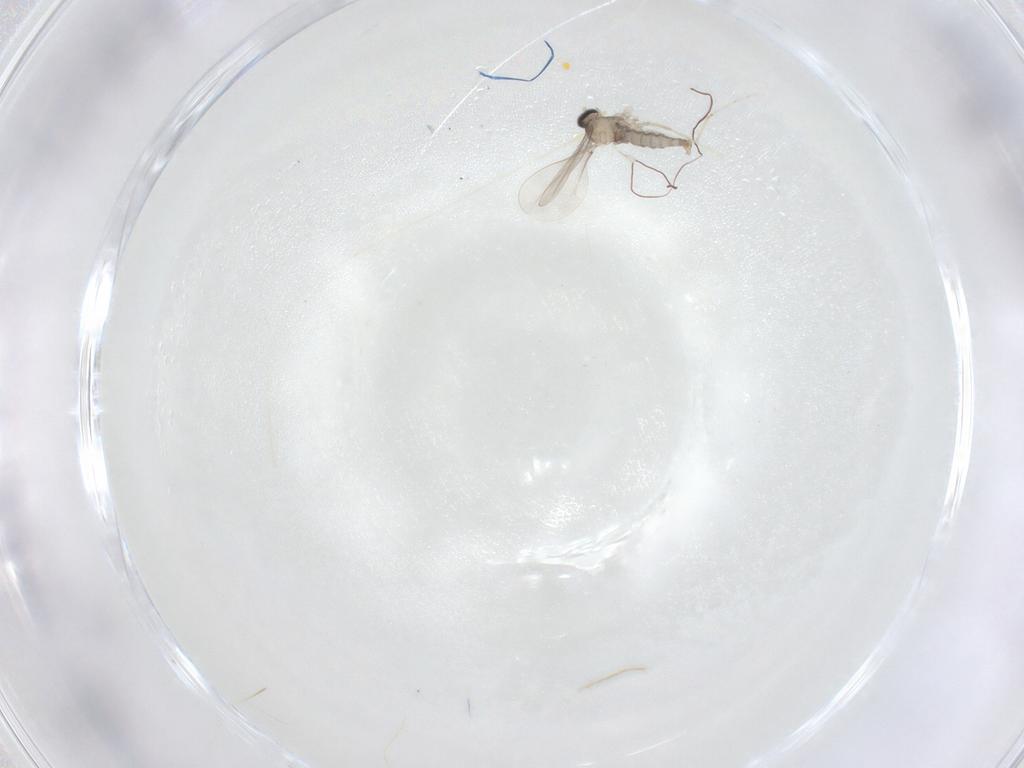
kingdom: Animalia
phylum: Arthropoda
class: Insecta
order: Diptera
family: Cecidomyiidae
